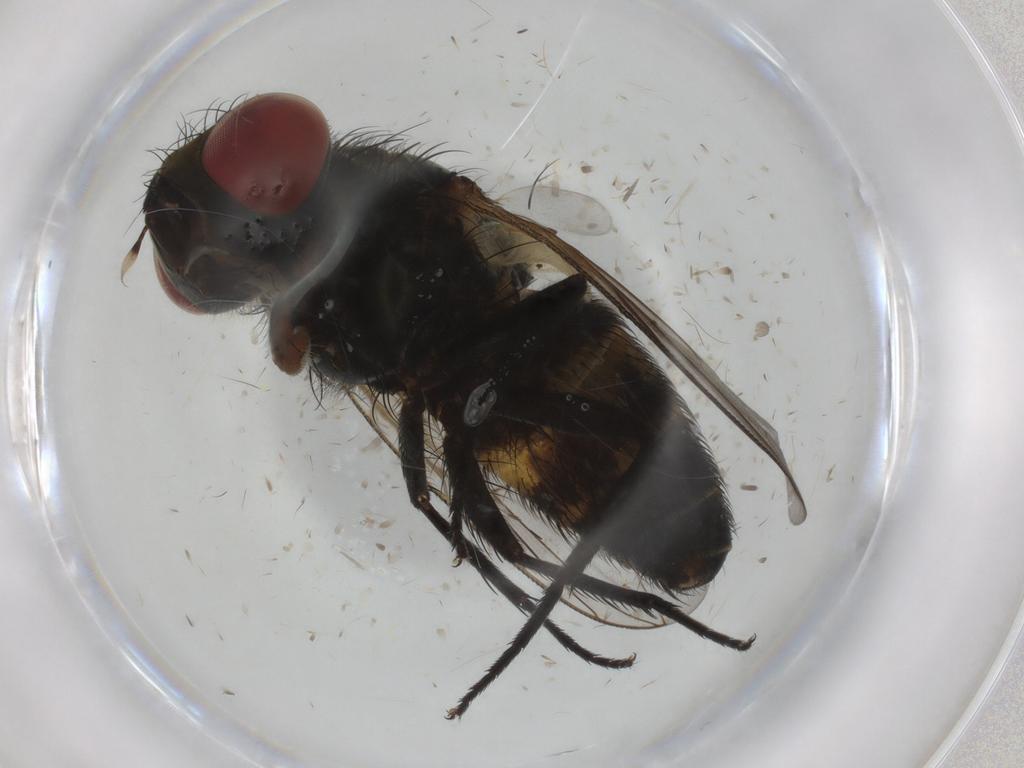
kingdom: Animalia
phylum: Arthropoda
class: Insecta
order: Diptera
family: Sarcophagidae
